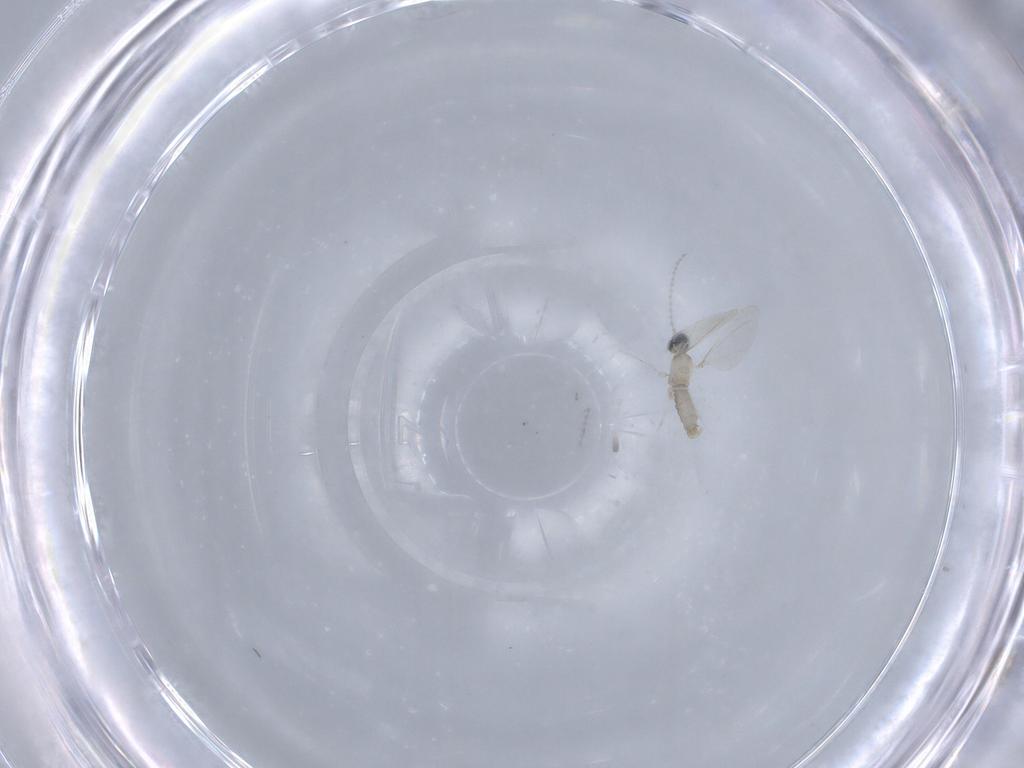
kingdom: Animalia
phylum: Arthropoda
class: Insecta
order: Diptera
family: Cecidomyiidae
